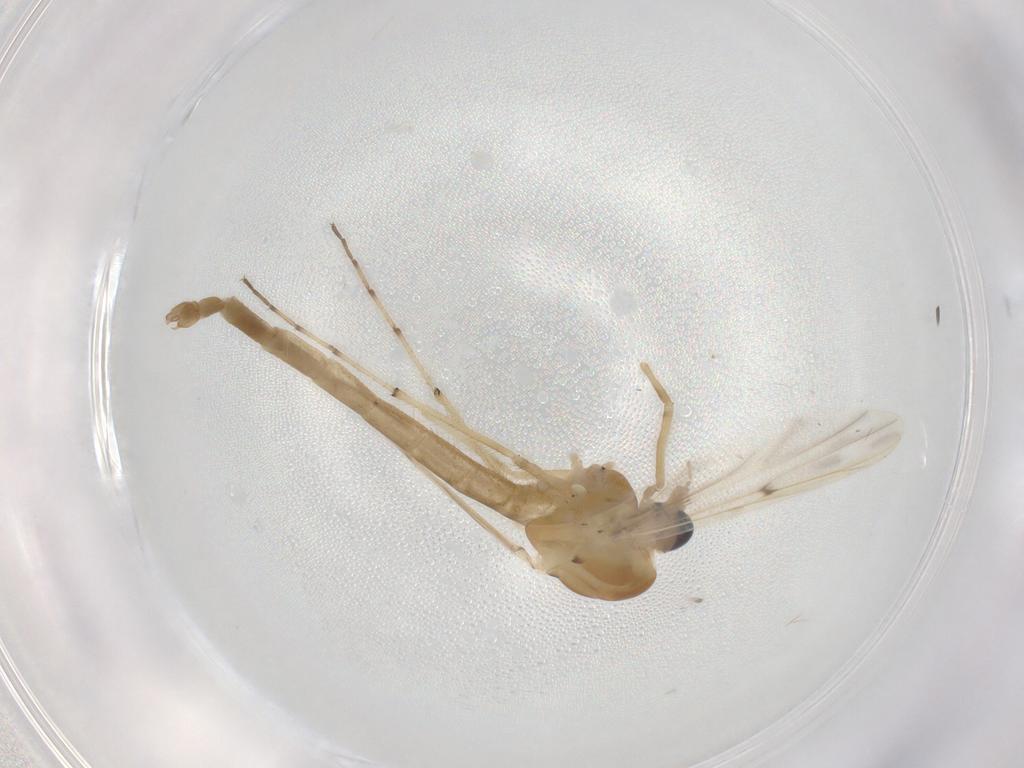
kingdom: Animalia
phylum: Arthropoda
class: Insecta
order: Diptera
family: Chironomidae
